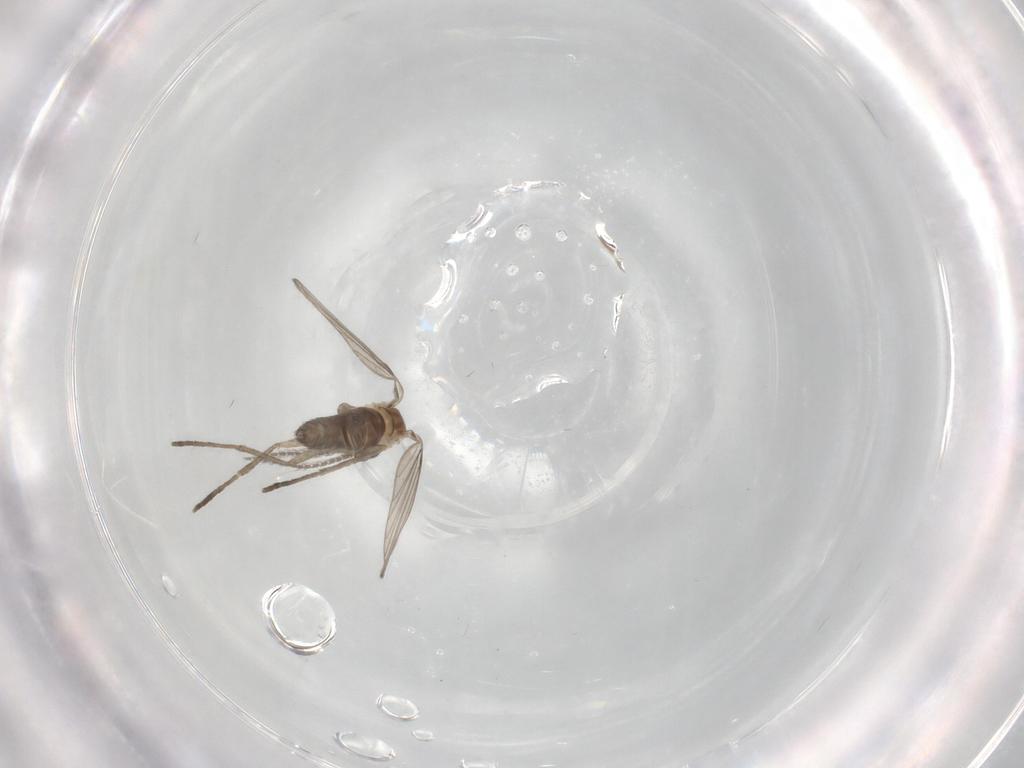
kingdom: Animalia
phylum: Arthropoda
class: Insecta
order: Diptera
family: Psychodidae
